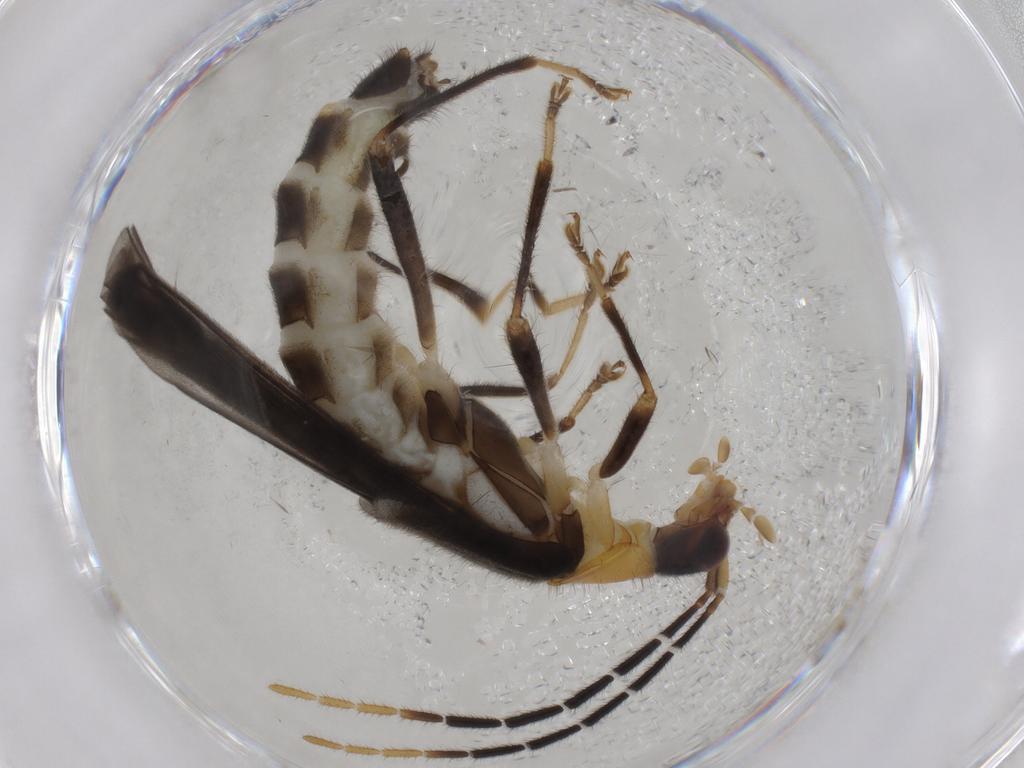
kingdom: Animalia
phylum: Arthropoda
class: Insecta
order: Coleoptera
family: Cantharidae
